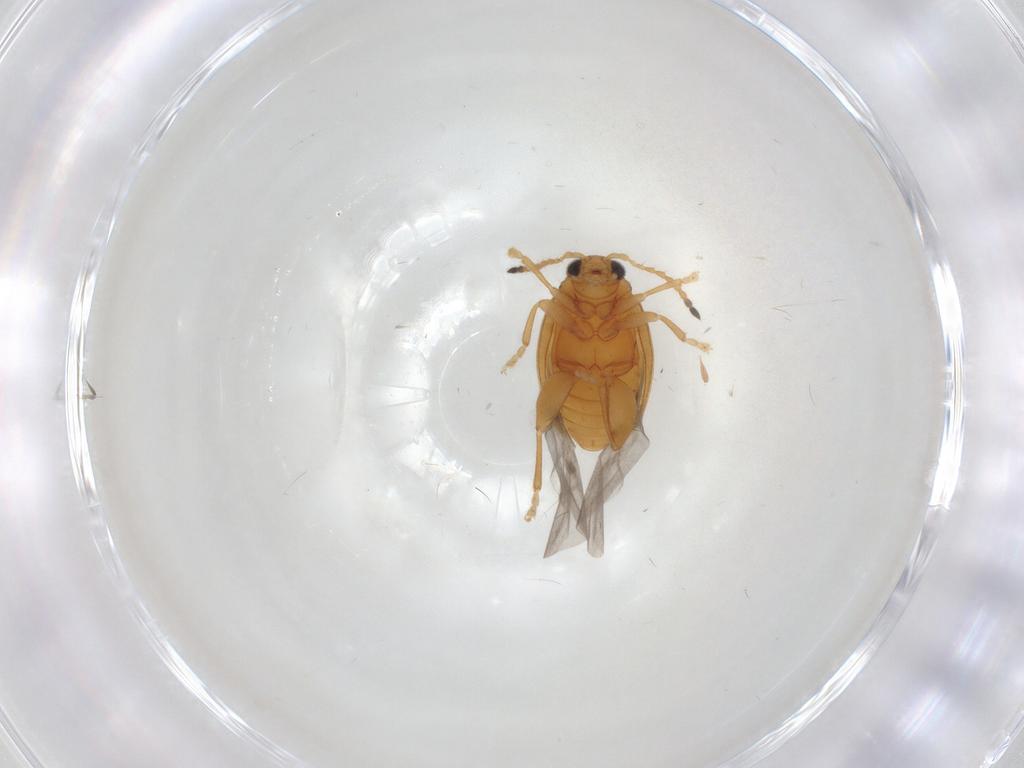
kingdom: Animalia
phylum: Arthropoda
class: Insecta
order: Coleoptera
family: Chrysomelidae
